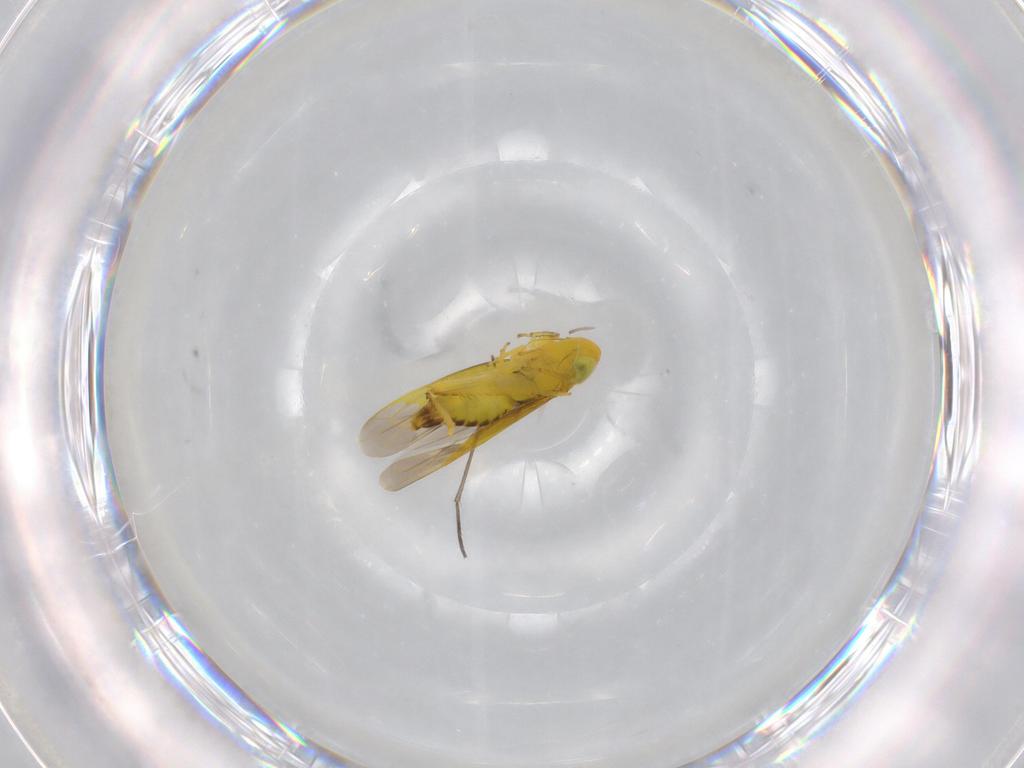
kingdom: Animalia
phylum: Arthropoda
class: Insecta
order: Hemiptera
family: Cicadellidae
